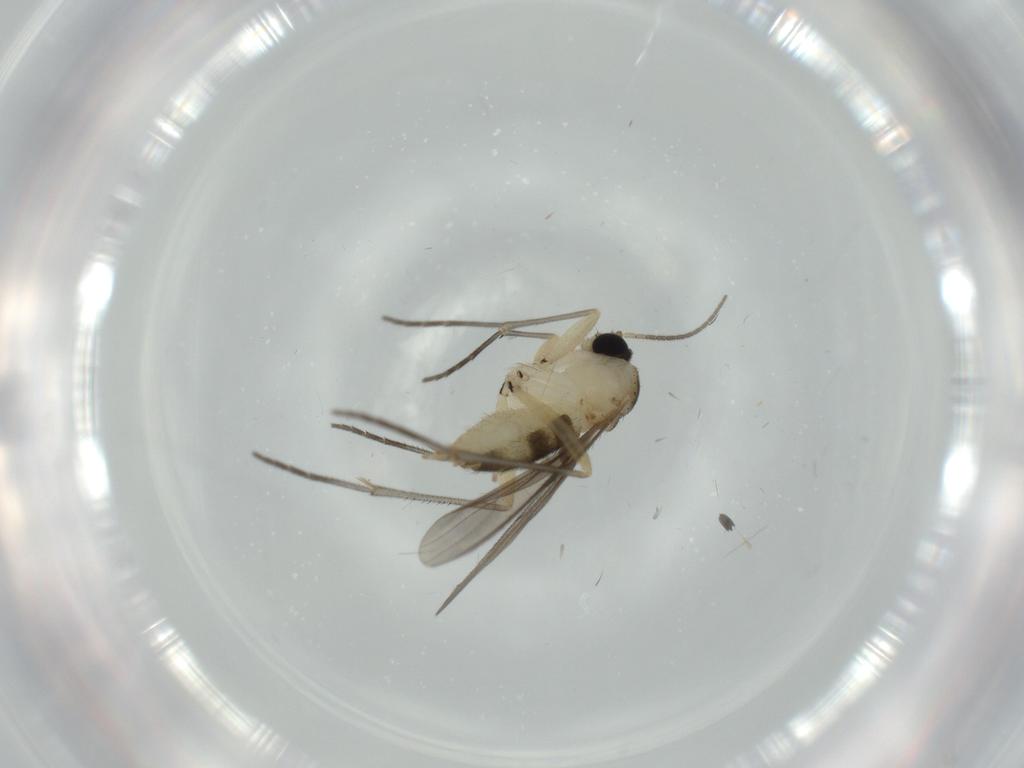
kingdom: Animalia
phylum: Arthropoda
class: Insecta
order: Diptera
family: Sciaridae
